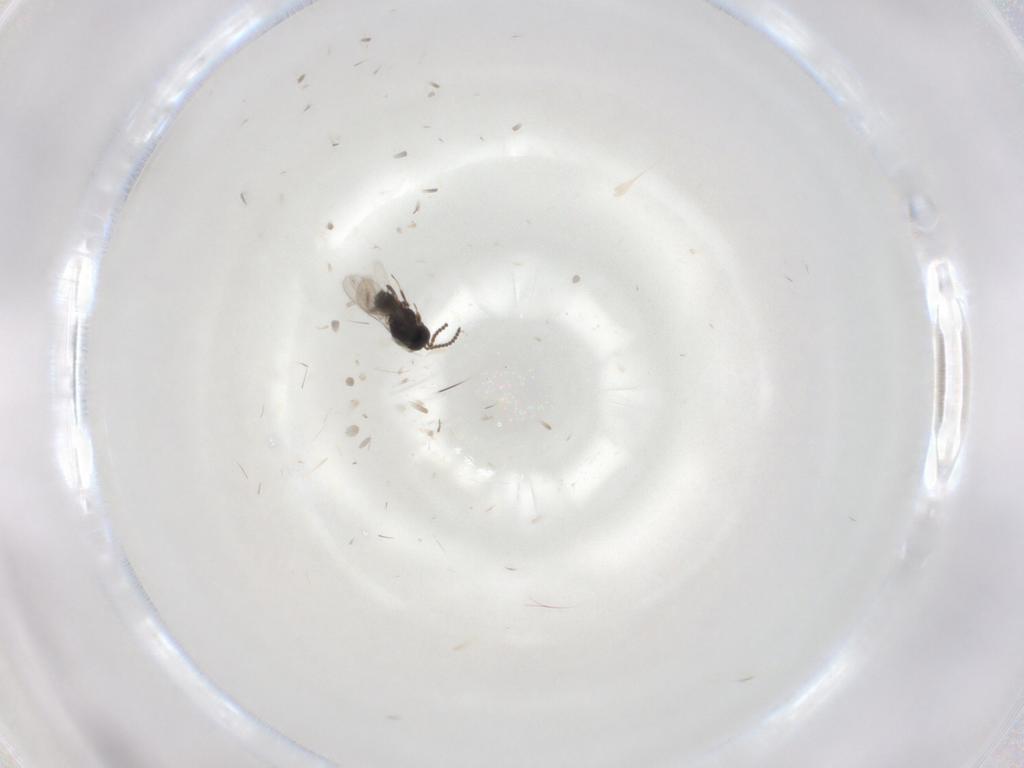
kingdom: Animalia
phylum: Arthropoda
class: Insecta
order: Hymenoptera
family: Scelionidae
